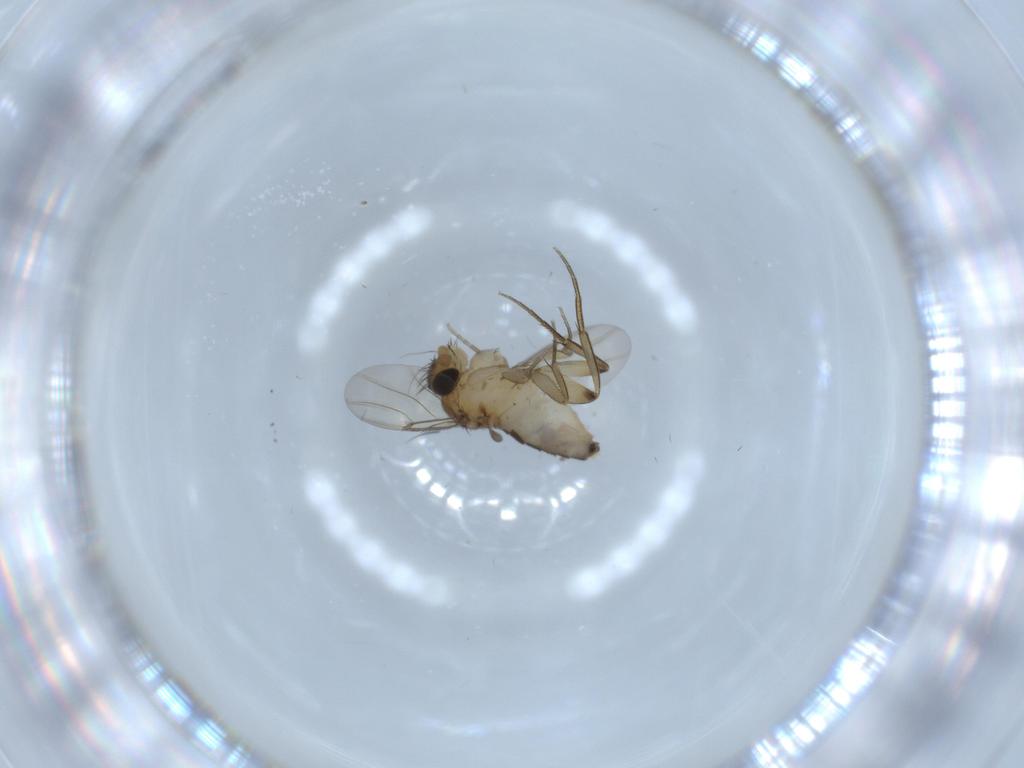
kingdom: Animalia
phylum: Arthropoda
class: Insecta
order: Diptera
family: Phoridae
